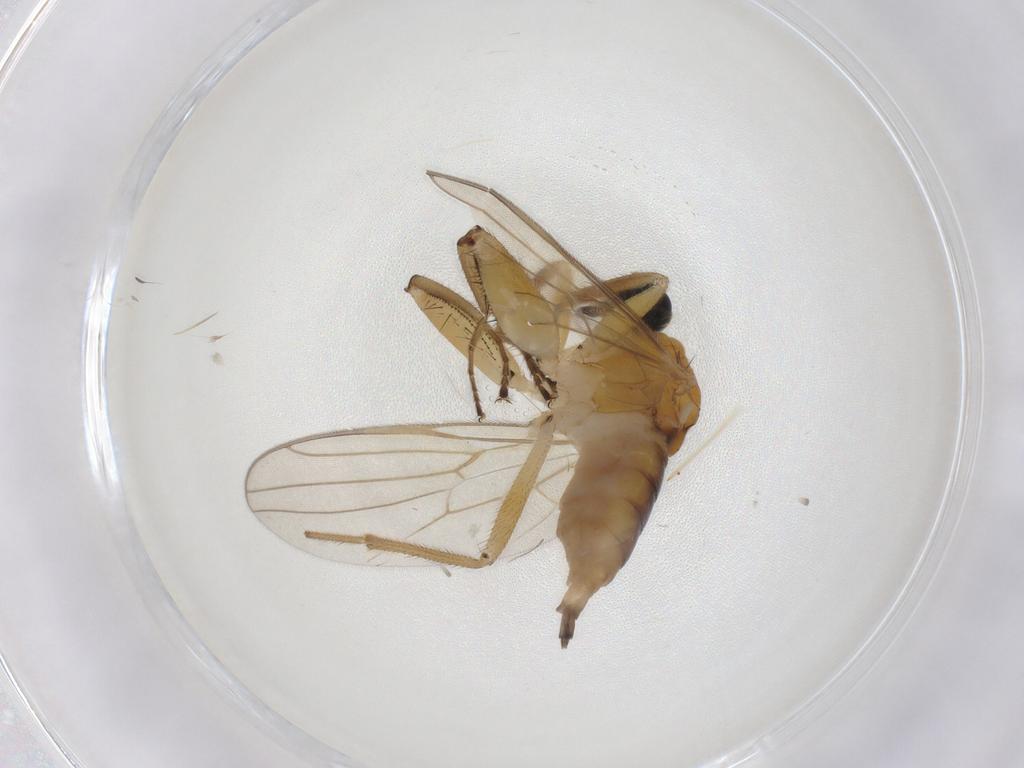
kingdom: Animalia
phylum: Arthropoda
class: Insecta
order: Diptera
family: Hybotidae
